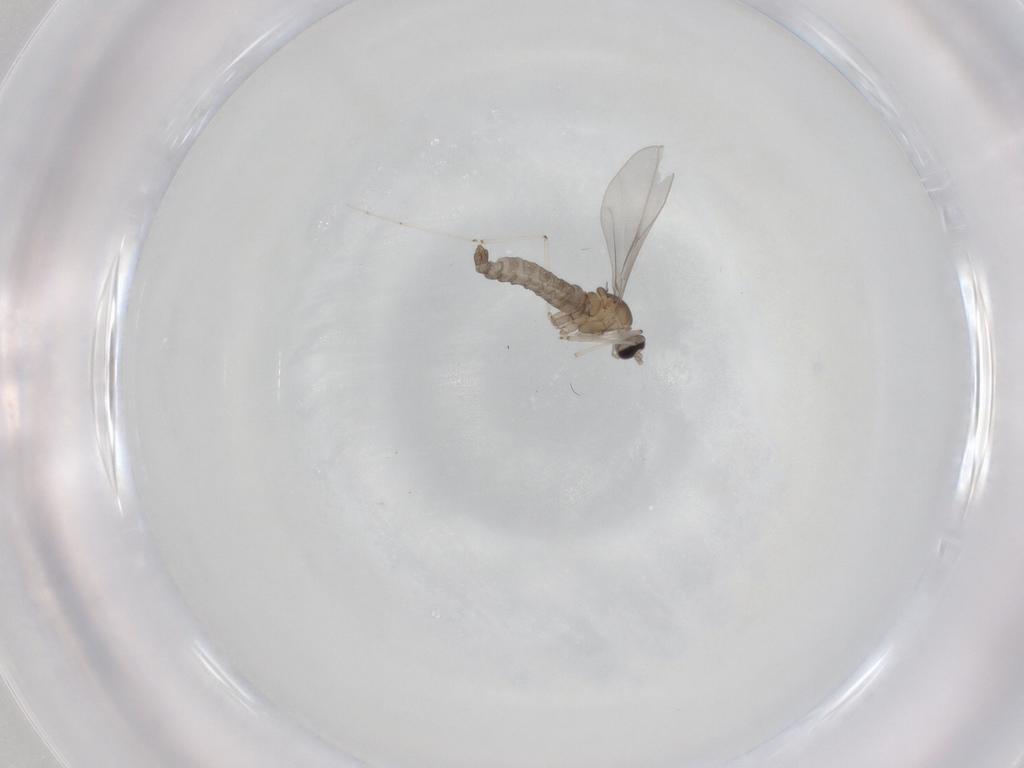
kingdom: Animalia
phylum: Arthropoda
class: Insecta
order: Diptera
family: Cecidomyiidae
